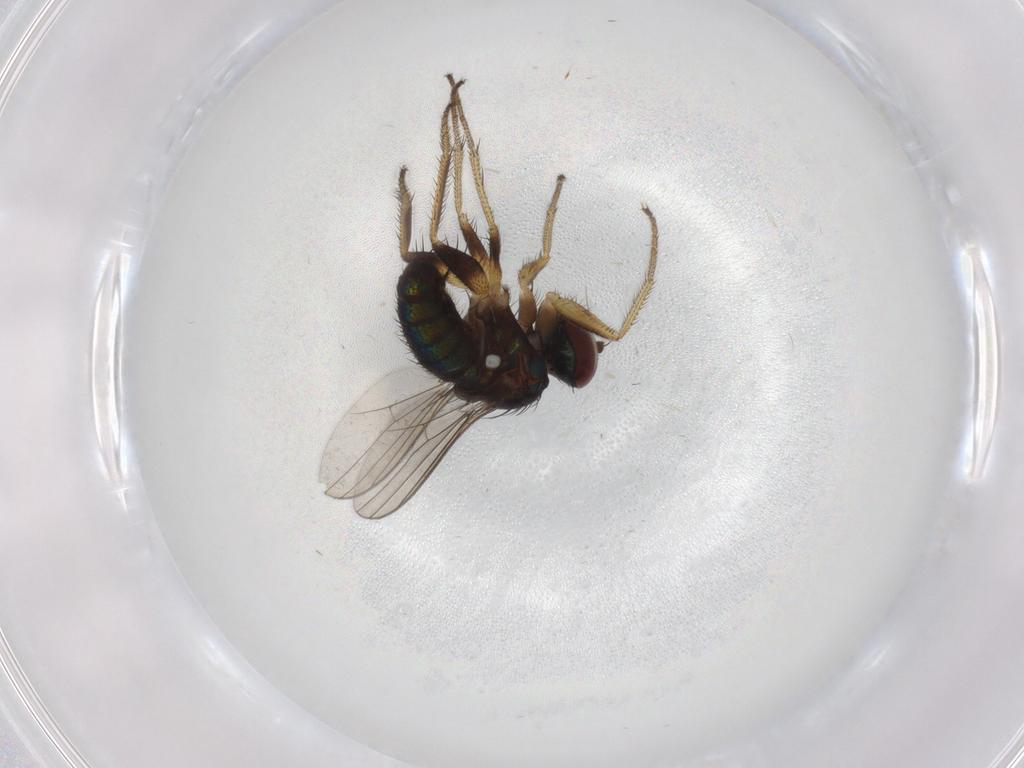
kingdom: Animalia
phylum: Arthropoda
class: Insecta
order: Diptera
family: Dolichopodidae
